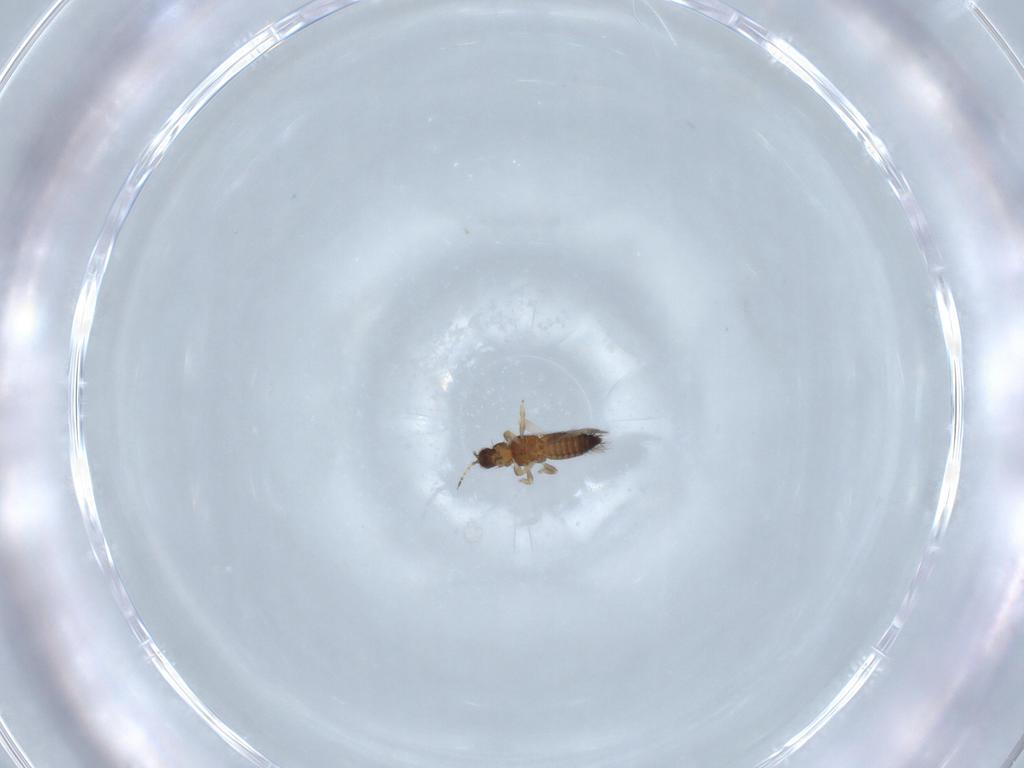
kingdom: Animalia
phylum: Arthropoda
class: Insecta
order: Thysanoptera
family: Thripidae
